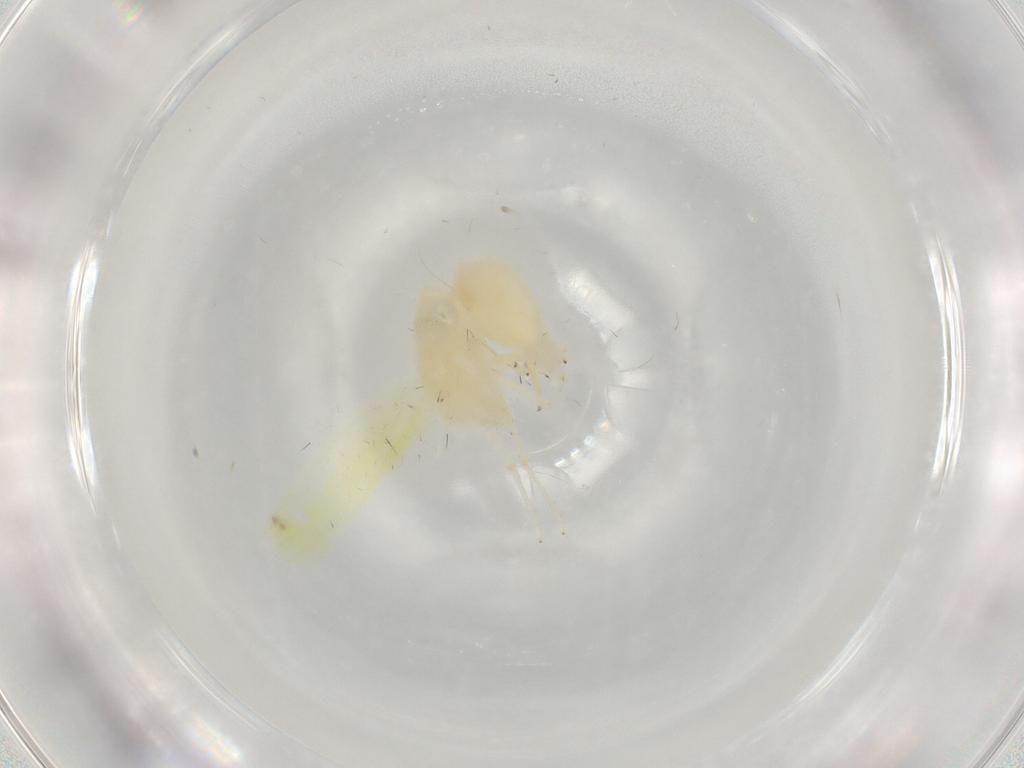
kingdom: Animalia
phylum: Arthropoda
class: Insecta
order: Hemiptera
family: Cicadellidae
